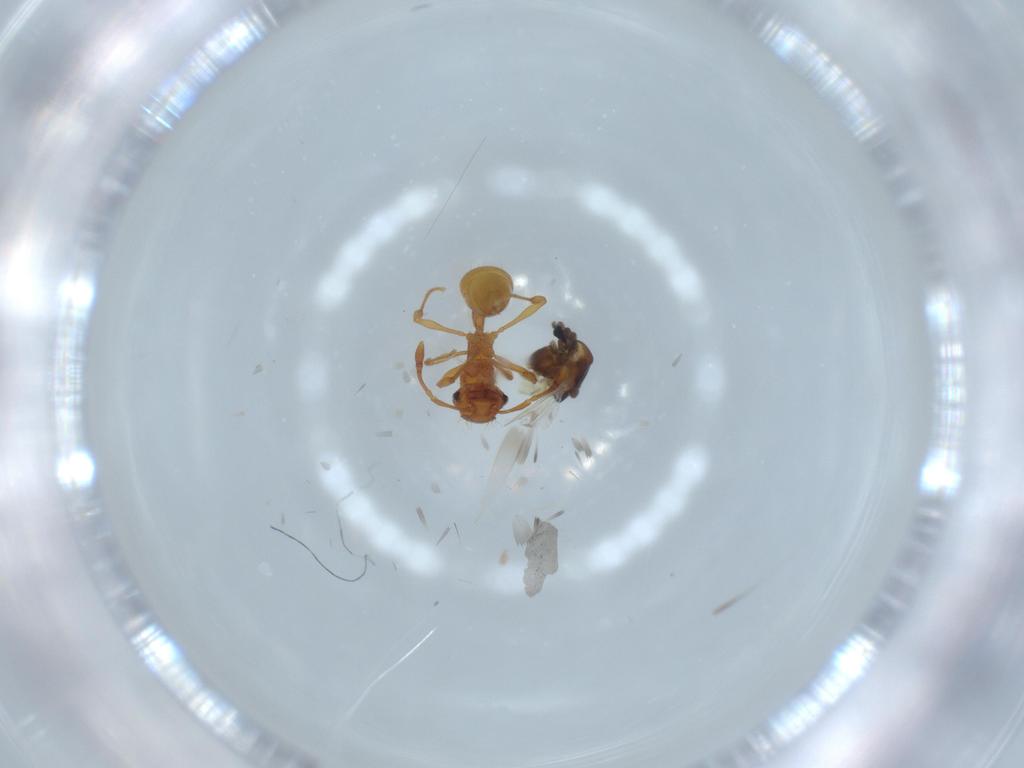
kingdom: Animalia
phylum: Arthropoda
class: Insecta
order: Diptera
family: Chironomidae
